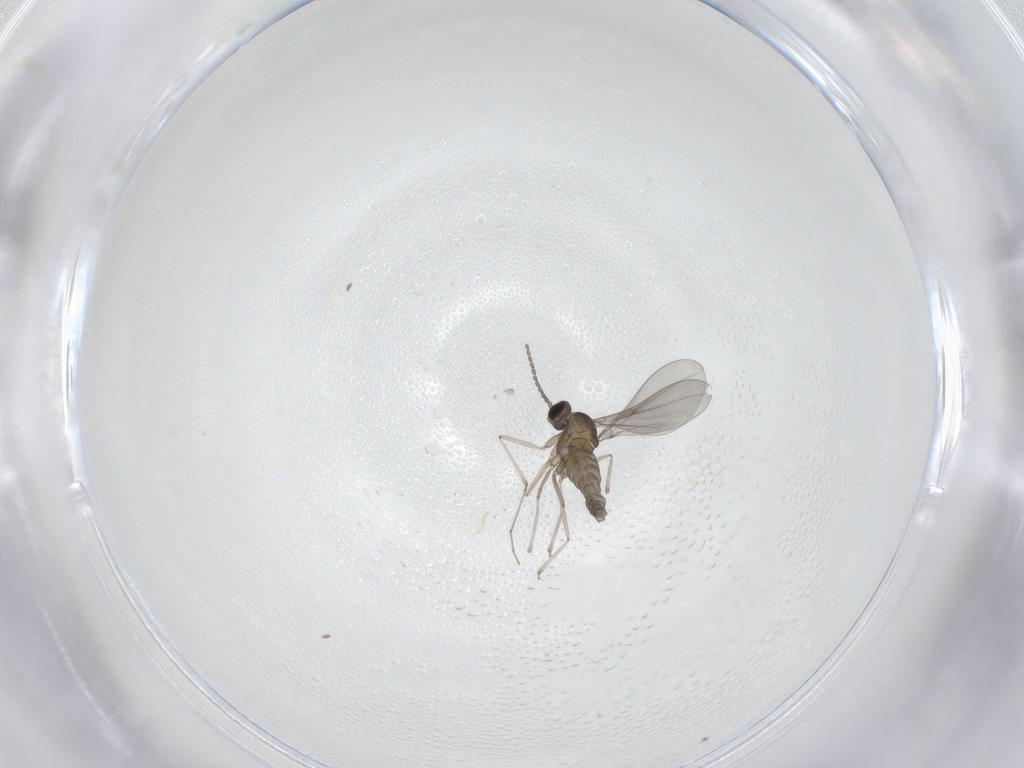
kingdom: Animalia
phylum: Arthropoda
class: Insecta
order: Diptera
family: Cecidomyiidae
